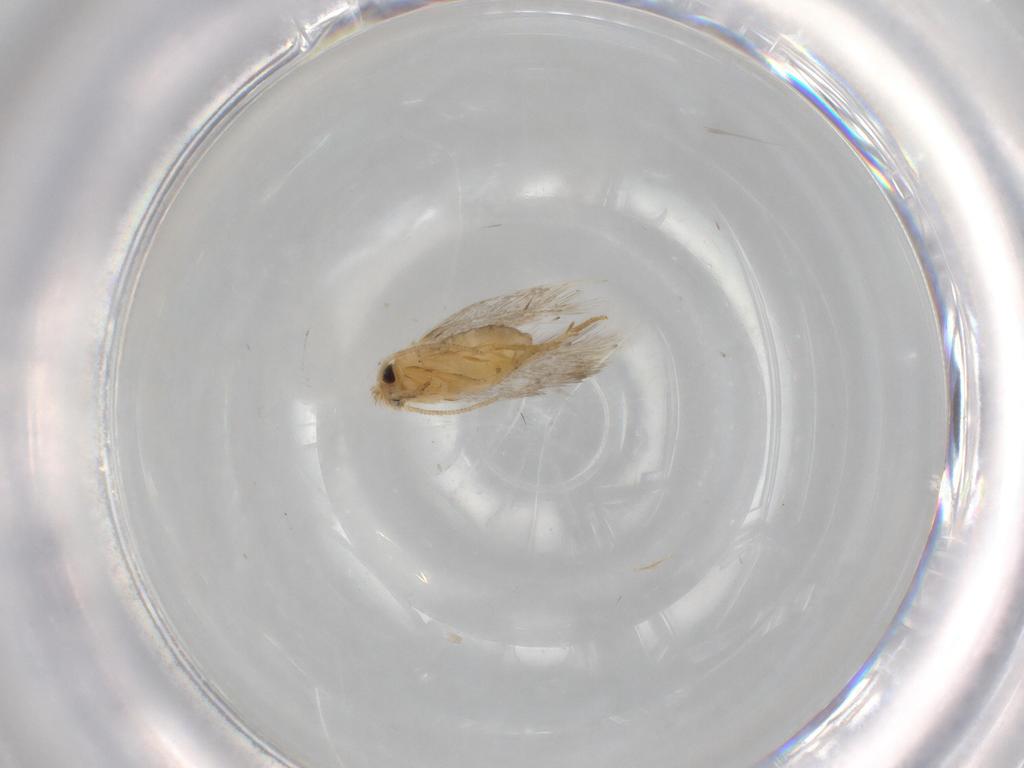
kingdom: Animalia
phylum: Arthropoda
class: Insecta
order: Lepidoptera
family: Nepticulidae
